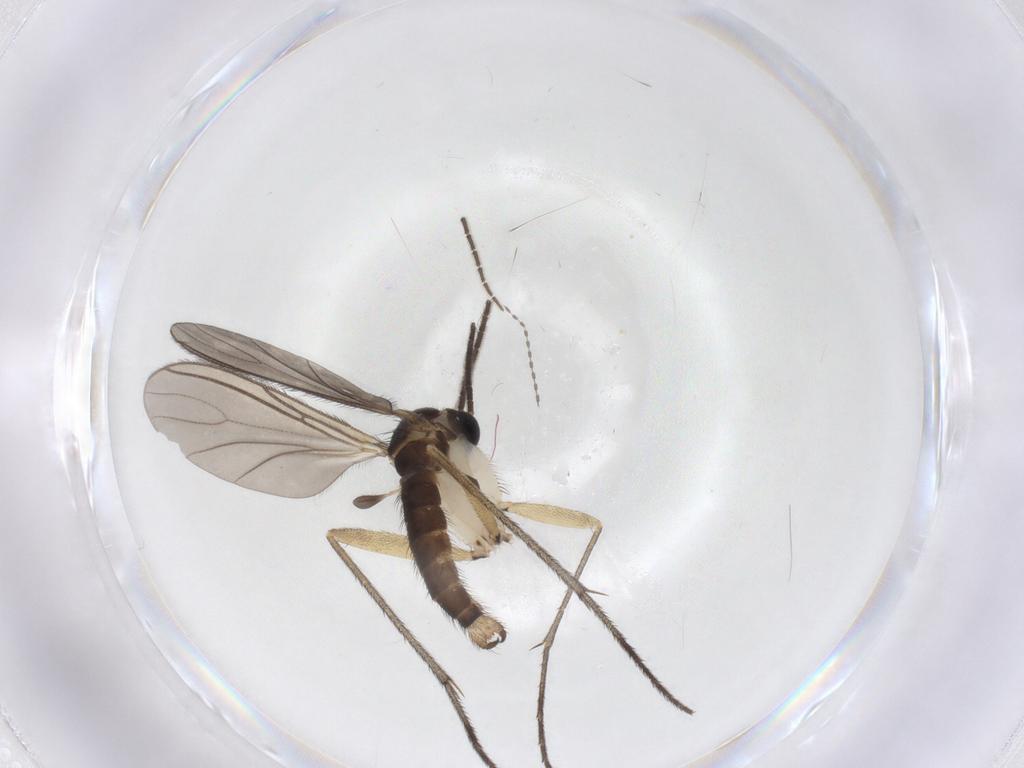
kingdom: Animalia
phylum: Arthropoda
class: Insecta
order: Diptera
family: Sciaridae
